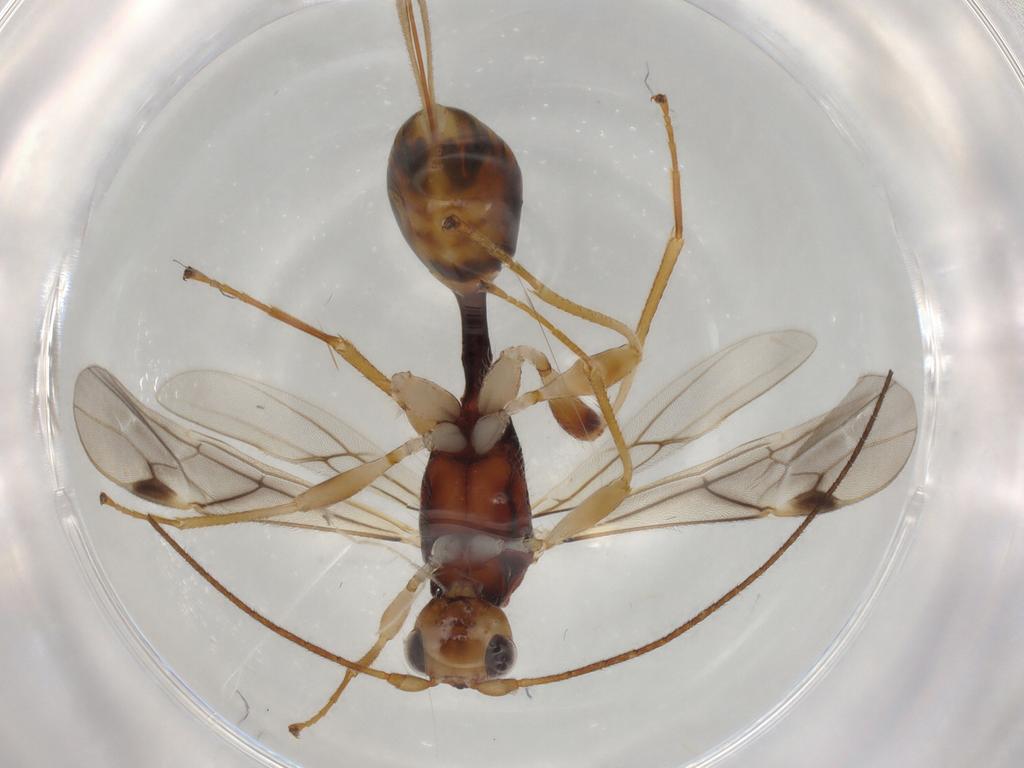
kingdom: Animalia
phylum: Arthropoda
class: Insecta
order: Hymenoptera
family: Braconidae
